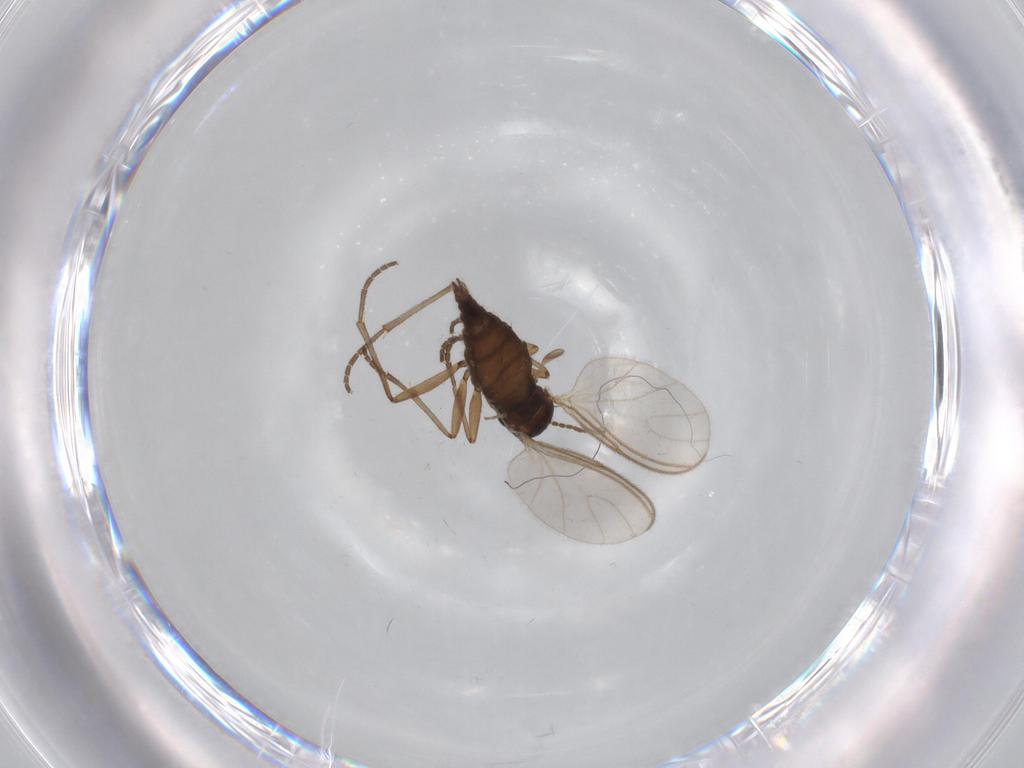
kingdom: Animalia
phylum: Arthropoda
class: Insecta
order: Diptera
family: Sciaridae
